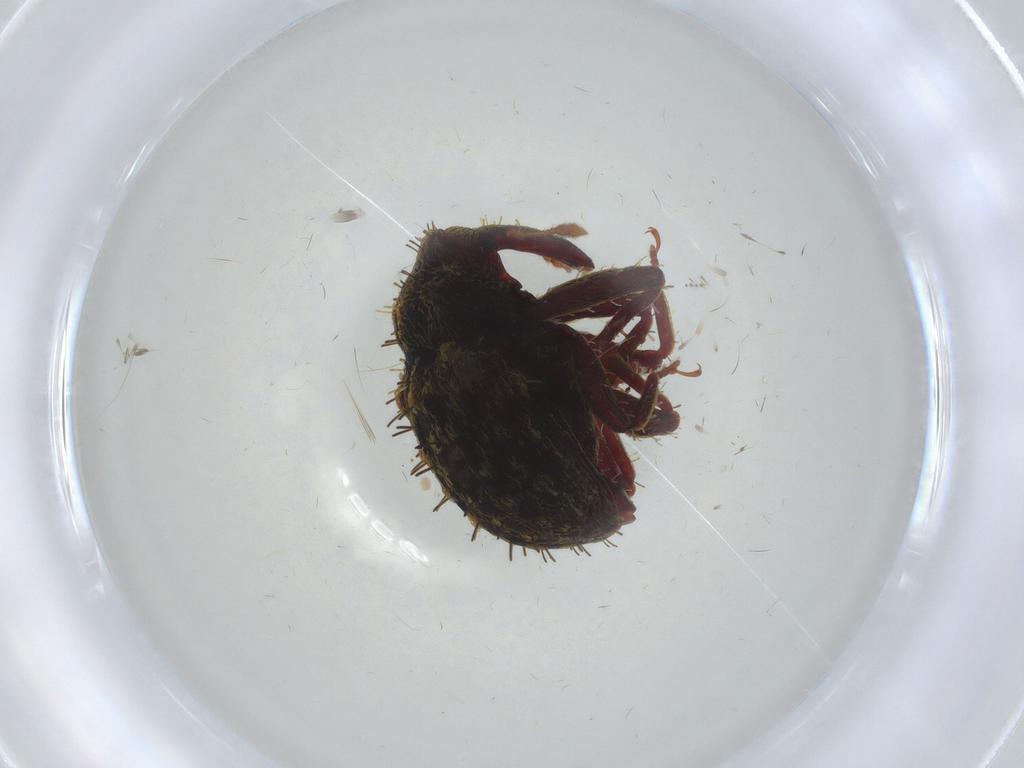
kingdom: Animalia
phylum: Arthropoda
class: Insecta
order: Coleoptera
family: Curculionidae
